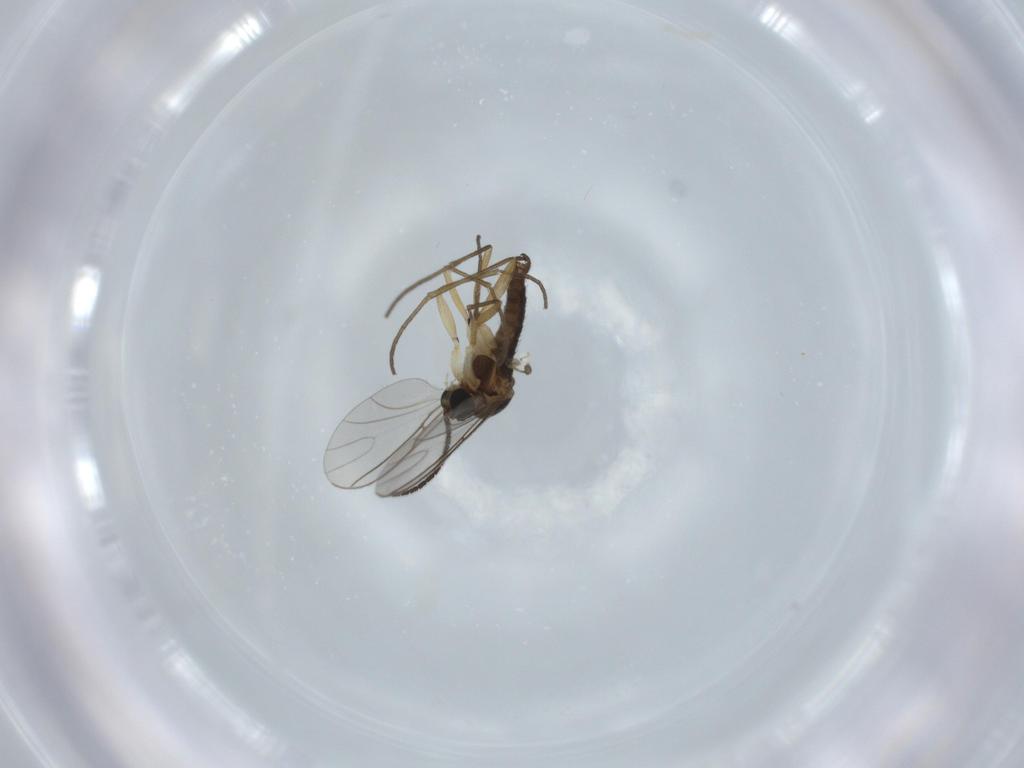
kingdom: Animalia
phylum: Arthropoda
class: Insecta
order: Diptera
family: Sciaridae
